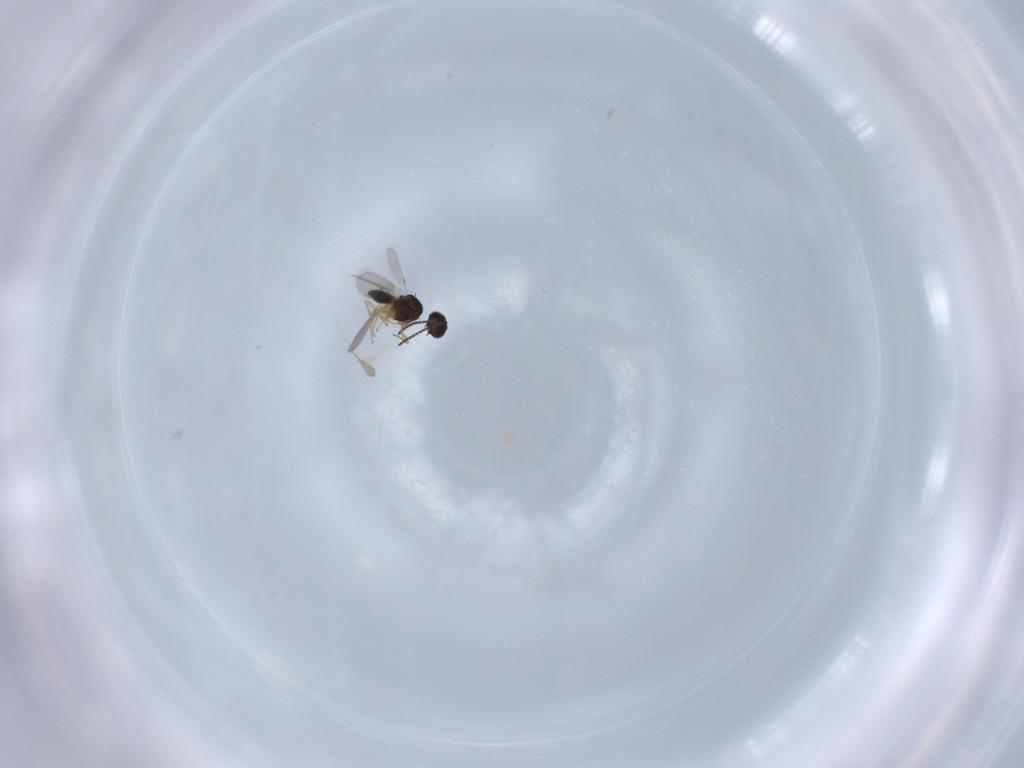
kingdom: Animalia
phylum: Arthropoda
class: Insecta
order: Hymenoptera
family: Scelionidae
